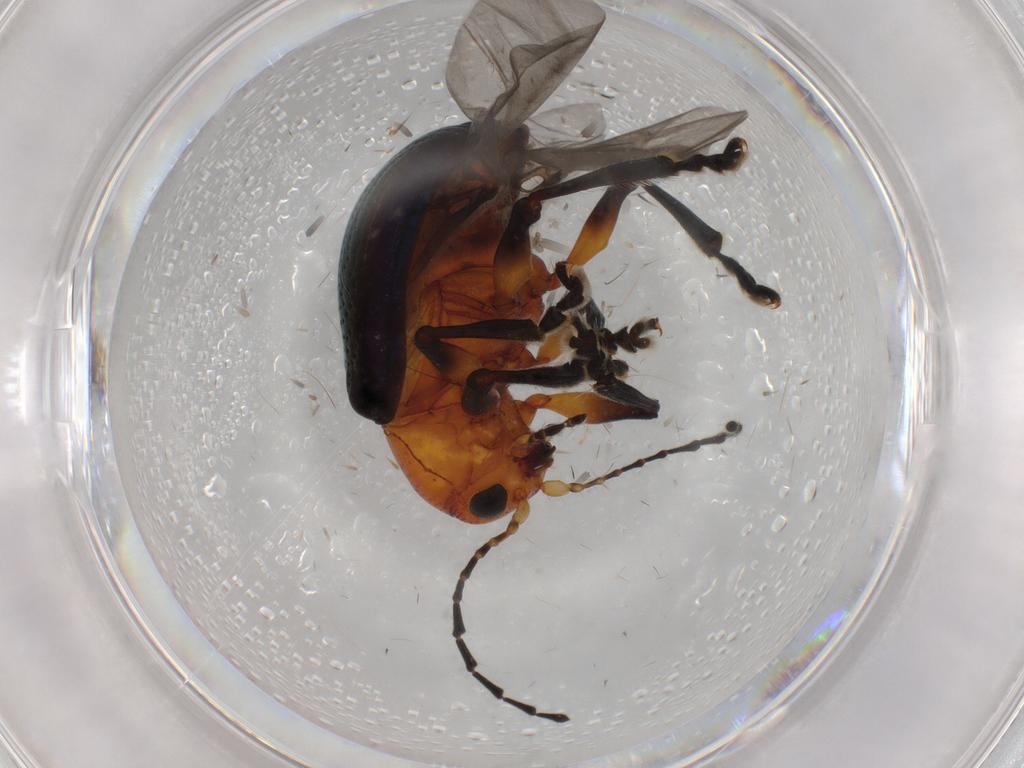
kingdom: Animalia
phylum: Arthropoda
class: Insecta
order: Coleoptera
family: Chrysomelidae
